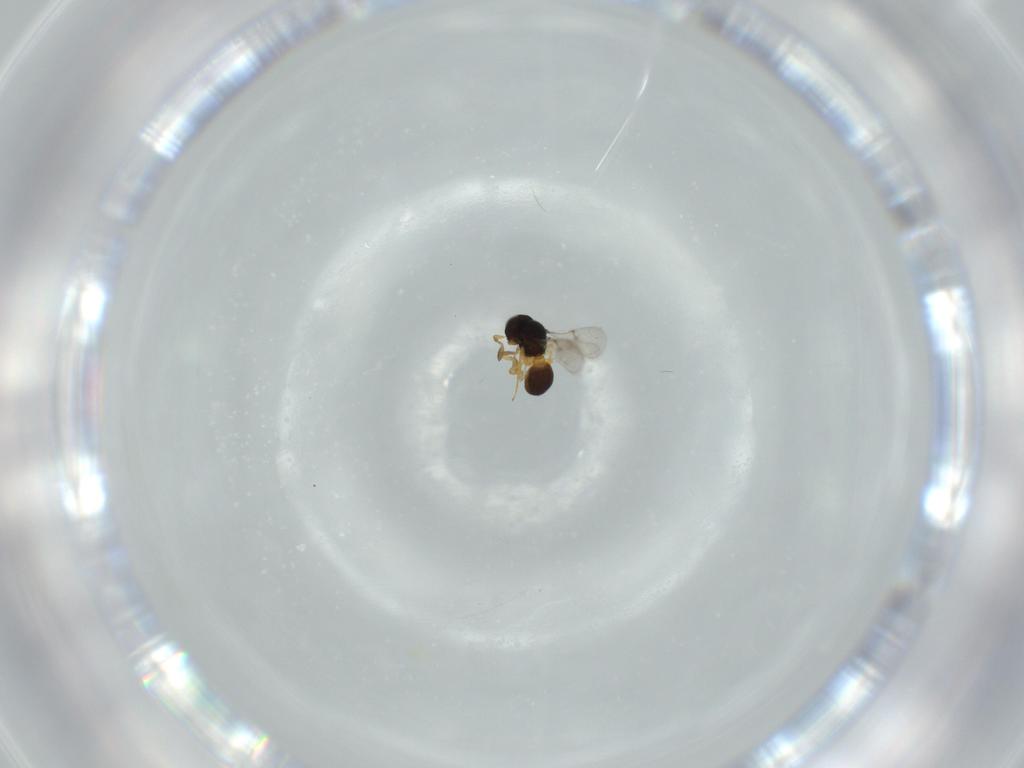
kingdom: Animalia
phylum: Arthropoda
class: Insecta
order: Hymenoptera
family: Scelionidae
